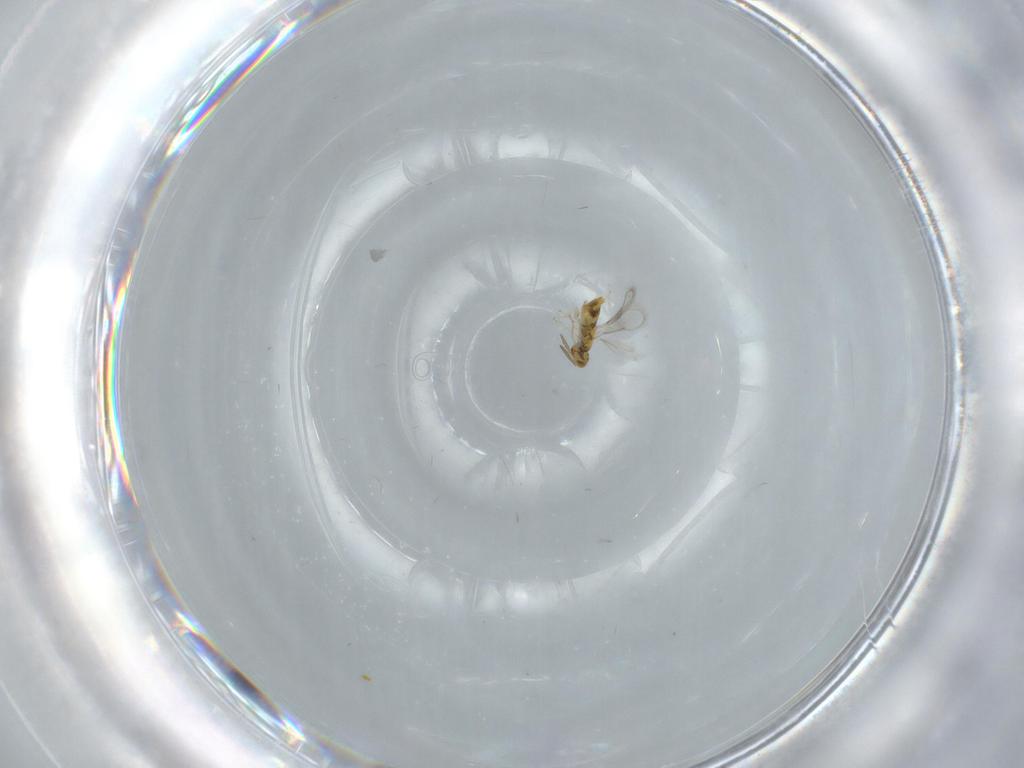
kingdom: Animalia
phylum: Arthropoda
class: Insecta
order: Hymenoptera
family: Aphelinidae
